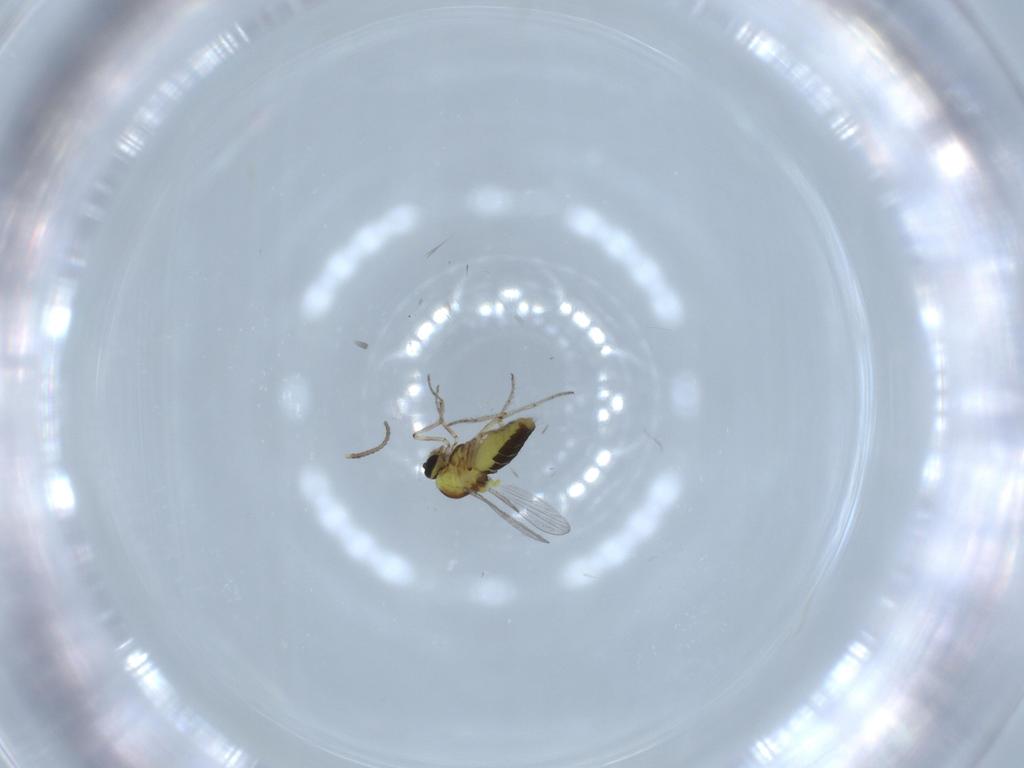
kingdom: Animalia
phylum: Arthropoda
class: Insecta
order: Diptera
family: Ceratopogonidae
